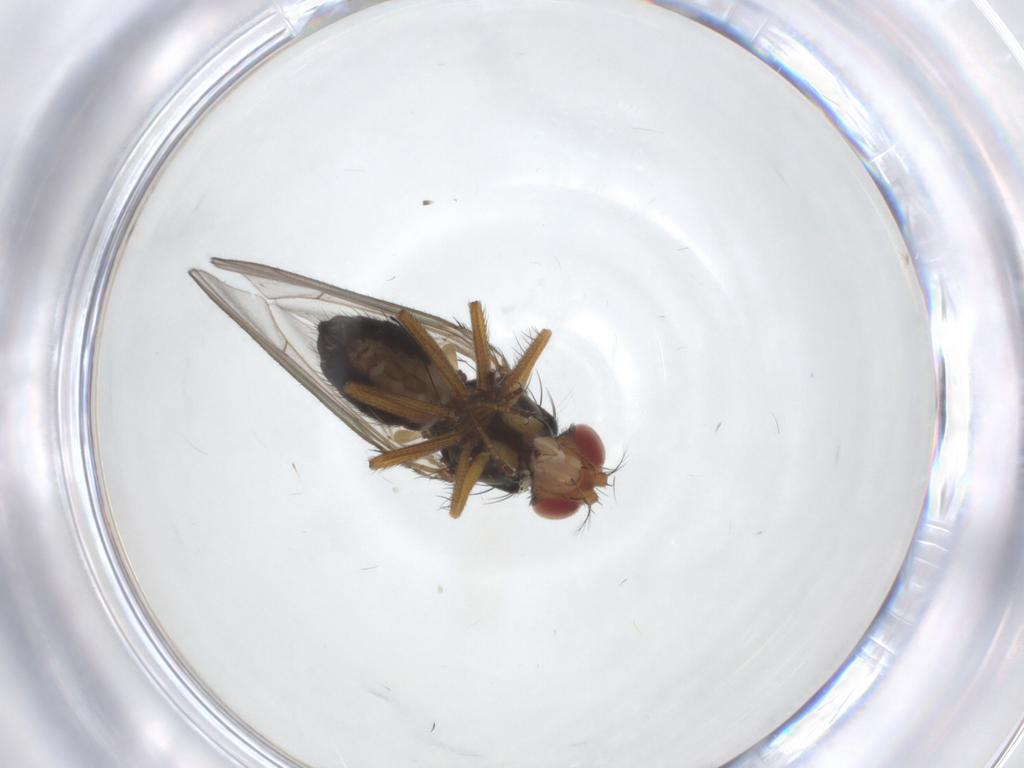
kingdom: Animalia
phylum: Arthropoda
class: Insecta
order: Diptera
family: Drosophilidae
